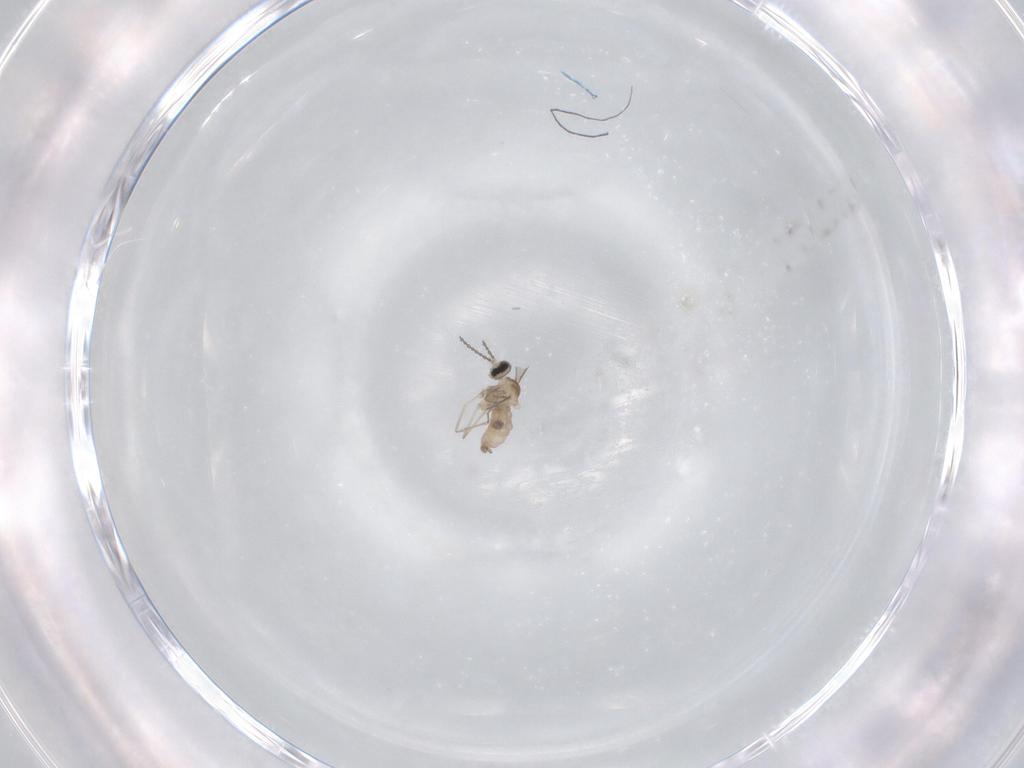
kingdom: Animalia
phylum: Arthropoda
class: Insecta
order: Diptera
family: Cecidomyiidae
